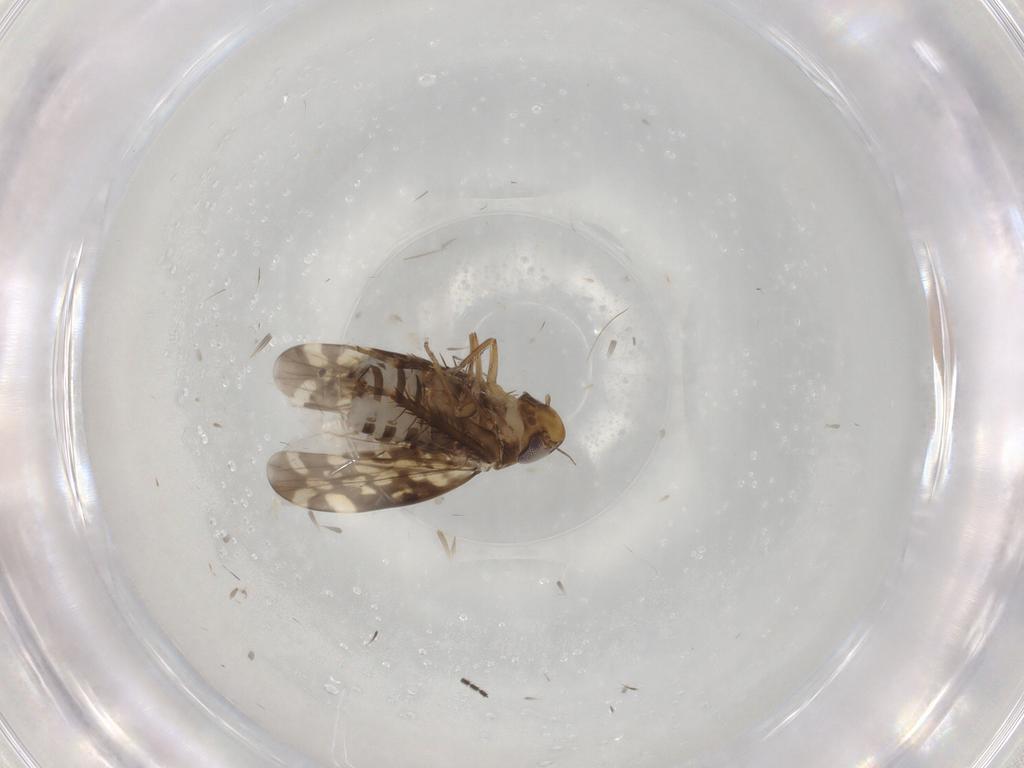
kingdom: Animalia
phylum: Arthropoda
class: Insecta
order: Hemiptera
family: Cicadellidae
